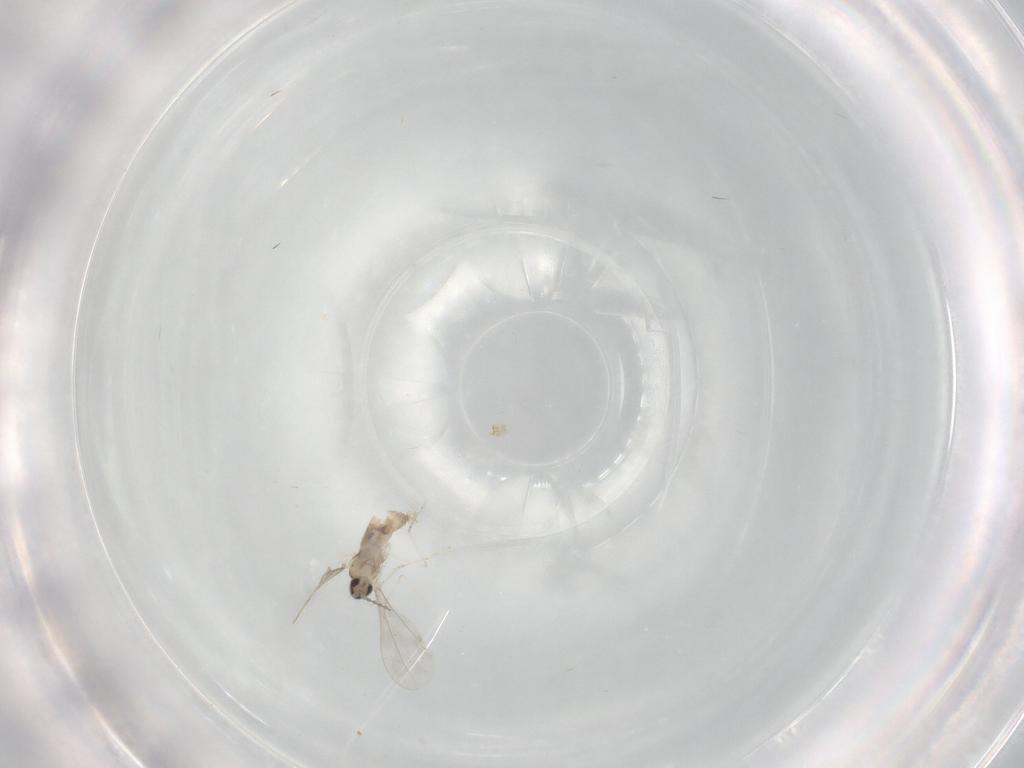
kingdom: Animalia
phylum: Arthropoda
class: Insecta
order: Diptera
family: Cecidomyiidae
